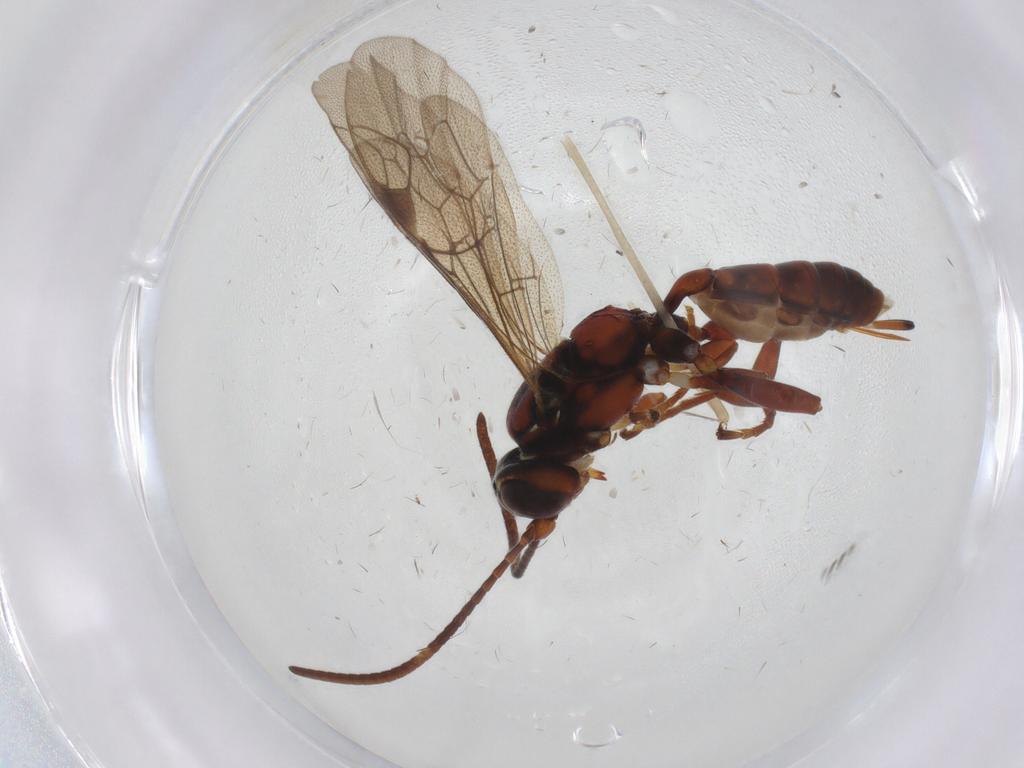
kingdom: Animalia
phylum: Arthropoda
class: Insecta
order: Hymenoptera
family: Ichneumonidae
